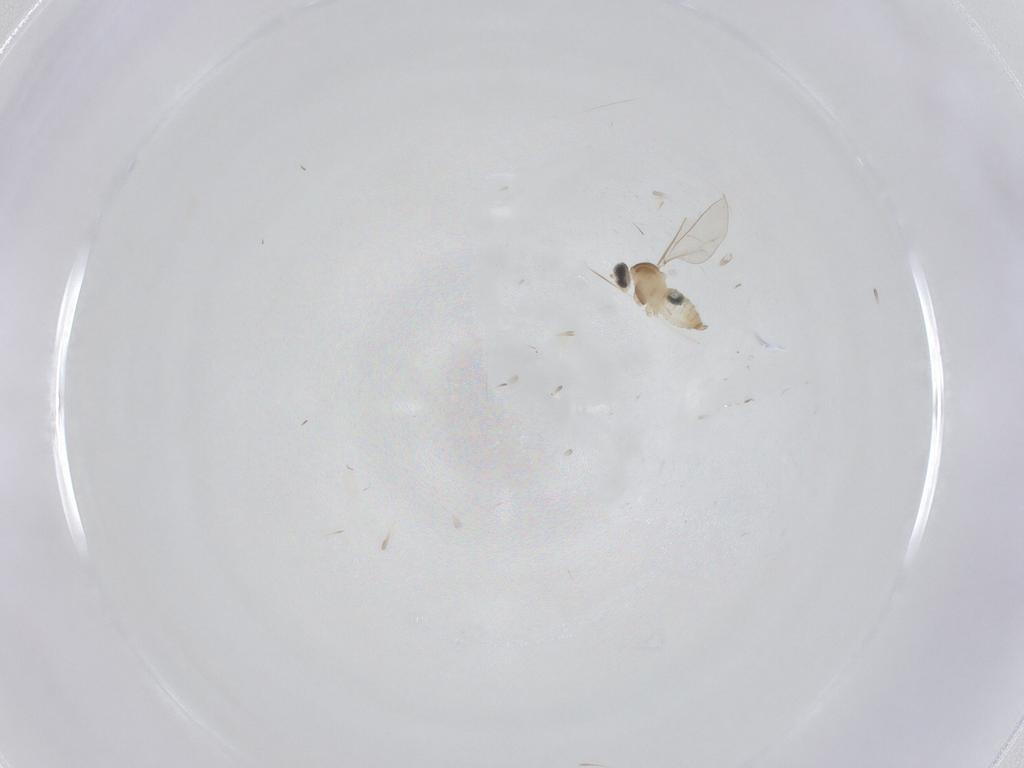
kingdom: Animalia
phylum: Arthropoda
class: Insecta
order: Diptera
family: Cecidomyiidae
